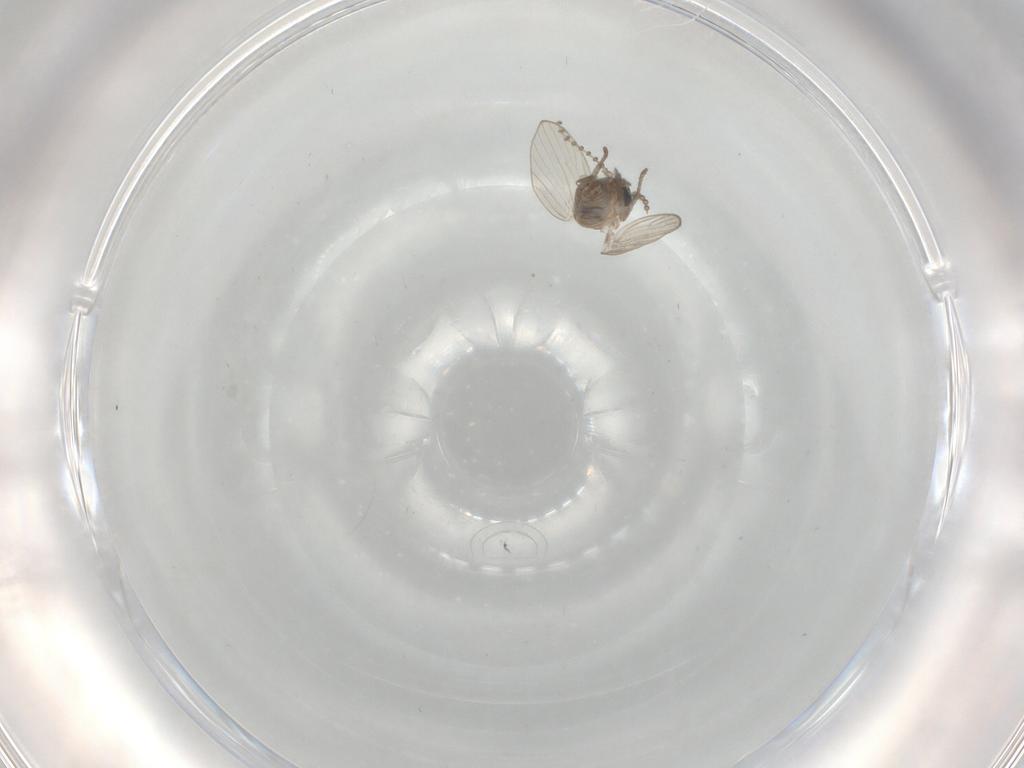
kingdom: Animalia
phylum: Arthropoda
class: Insecta
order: Diptera
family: Psychodidae
